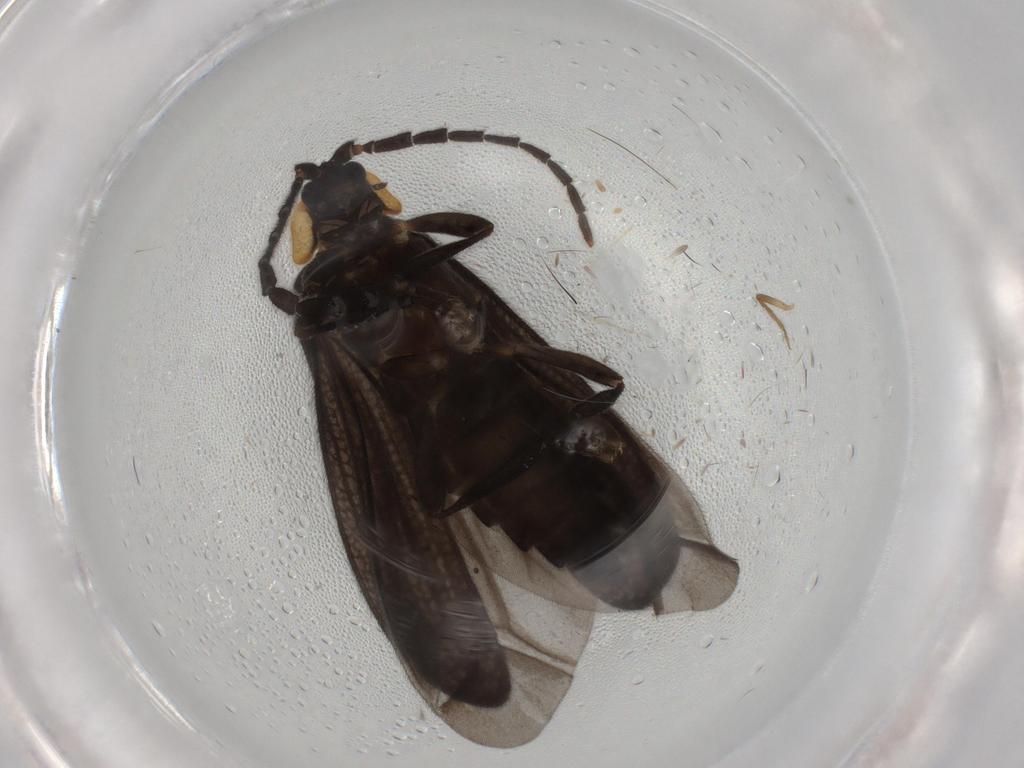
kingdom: Animalia
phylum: Arthropoda
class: Insecta
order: Coleoptera
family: Lycidae
